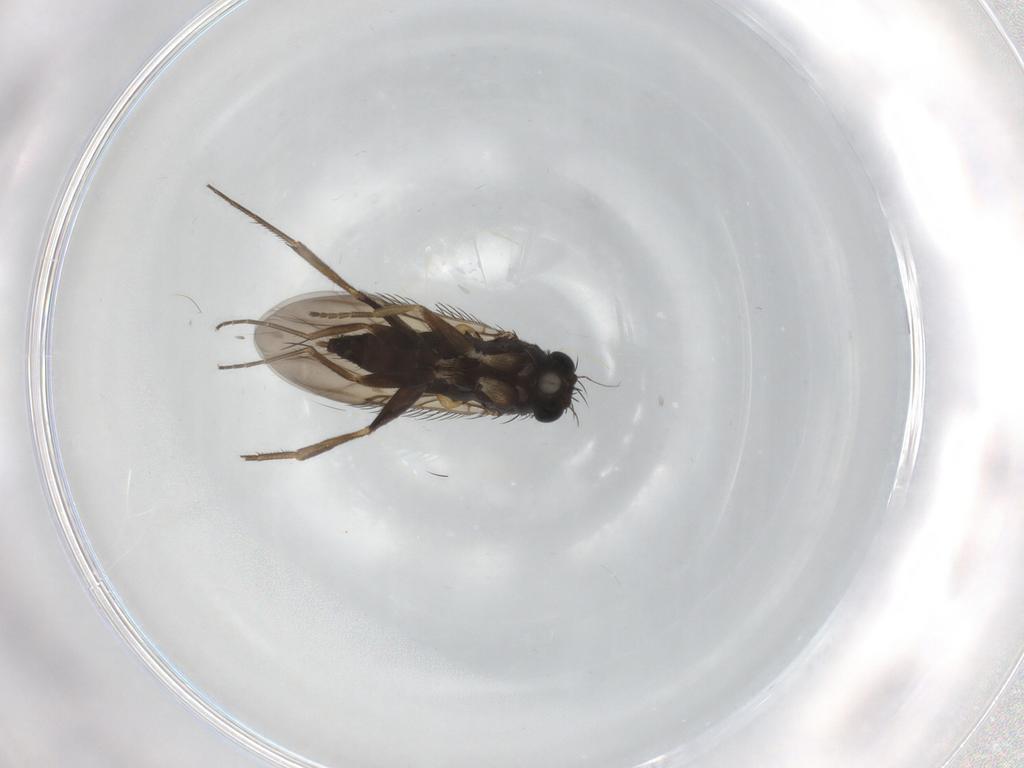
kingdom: Animalia
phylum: Arthropoda
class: Insecta
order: Diptera
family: Phoridae
